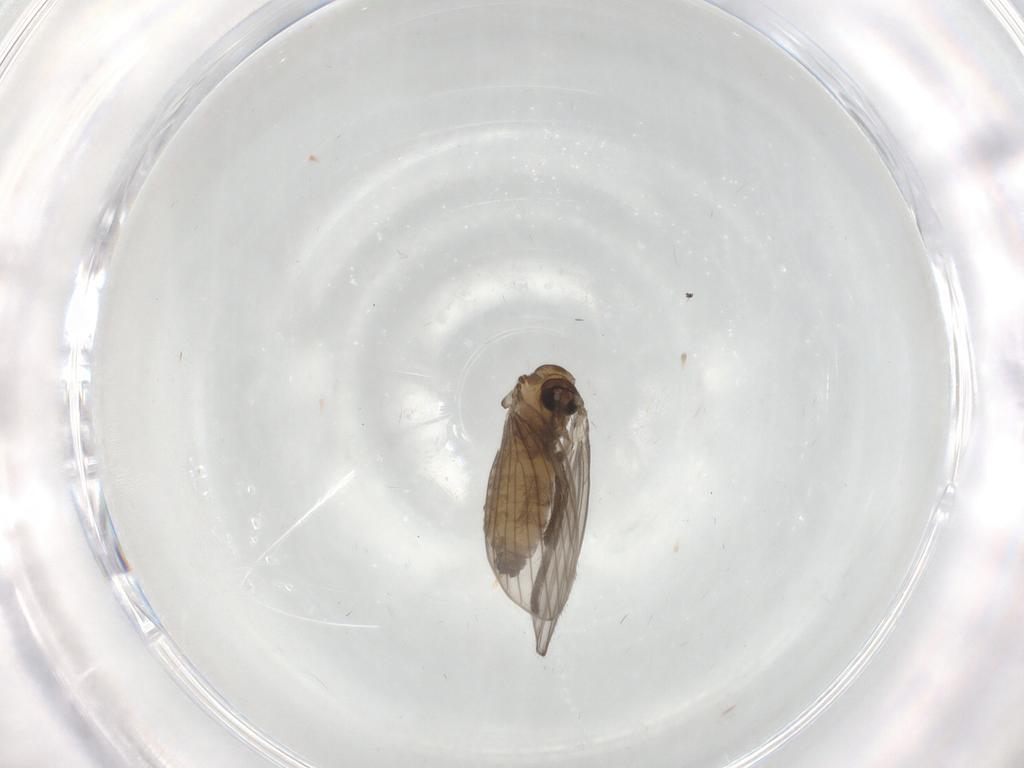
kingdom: Animalia
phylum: Arthropoda
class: Insecta
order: Diptera
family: Psychodidae
